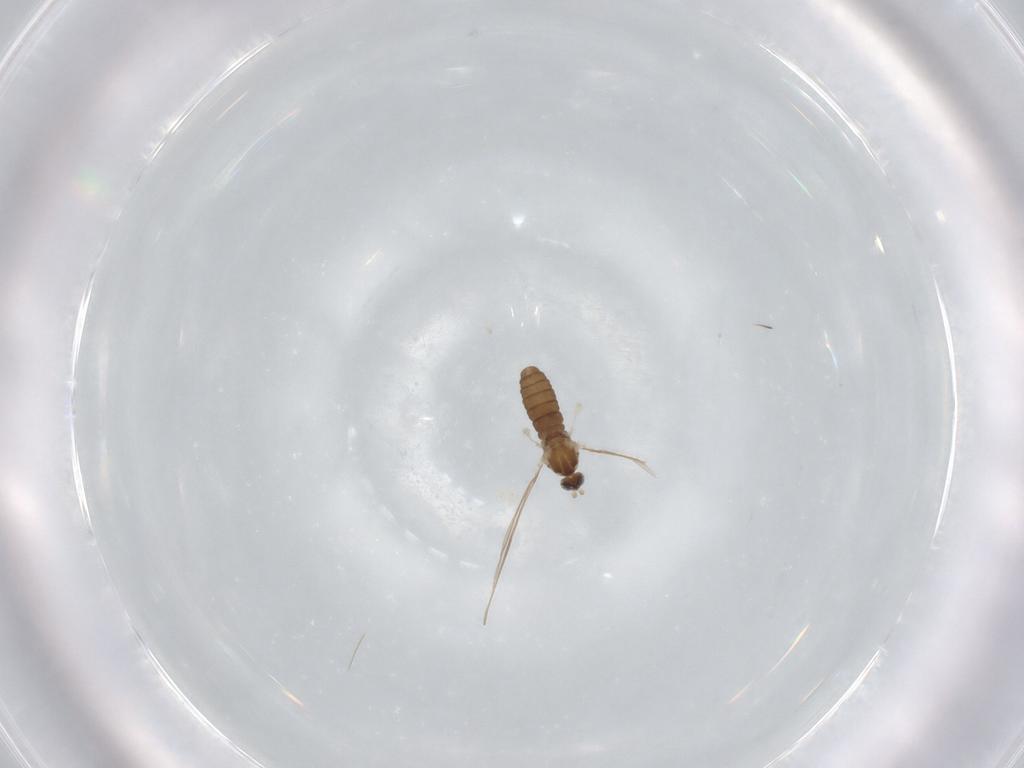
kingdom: Animalia
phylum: Arthropoda
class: Insecta
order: Diptera
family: Cecidomyiidae
